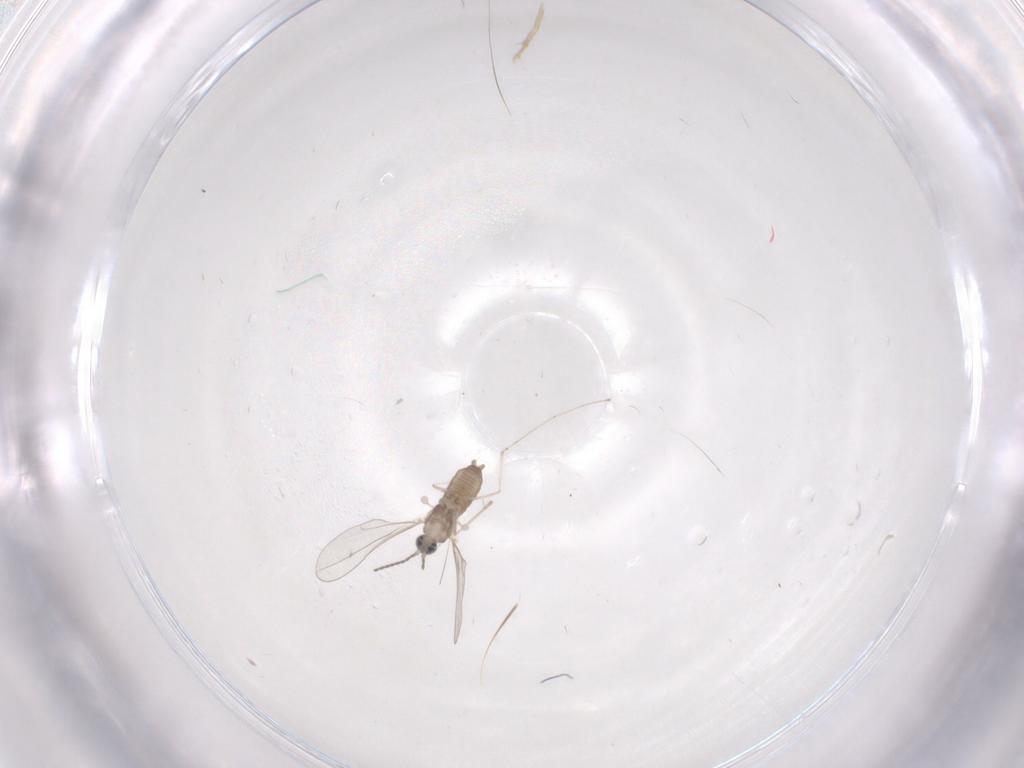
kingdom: Animalia
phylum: Arthropoda
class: Insecta
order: Diptera
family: Cecidomyiidae
